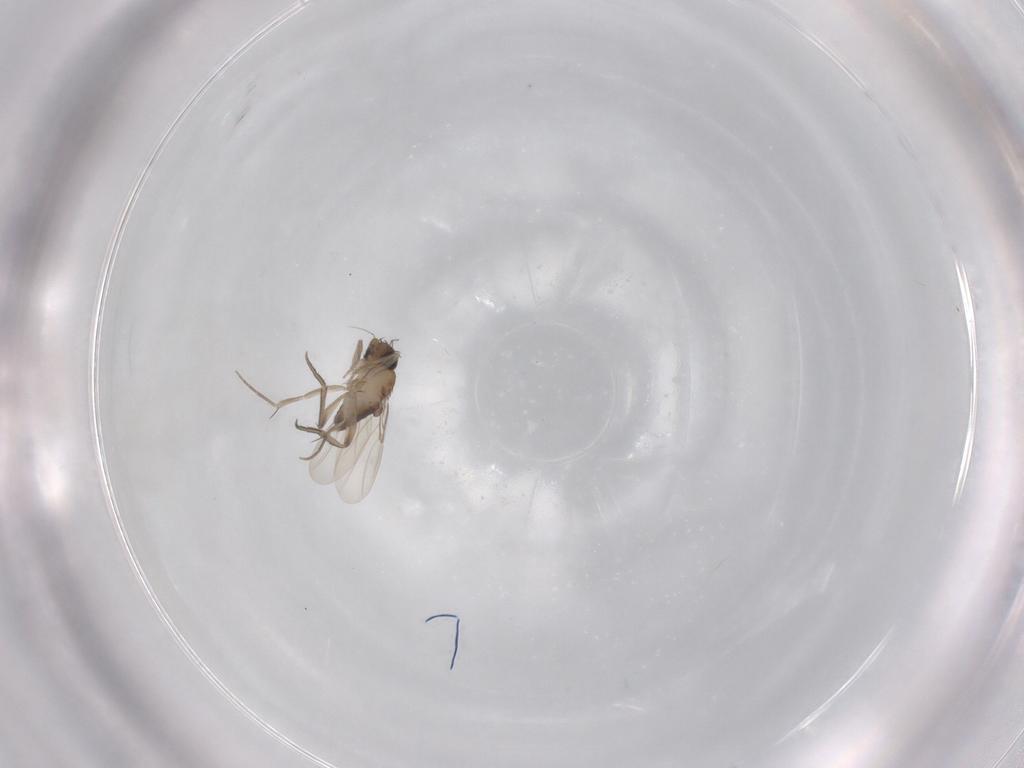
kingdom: Animalia
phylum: Arthropoda
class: Insecta
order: Diptera
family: Phoridae
